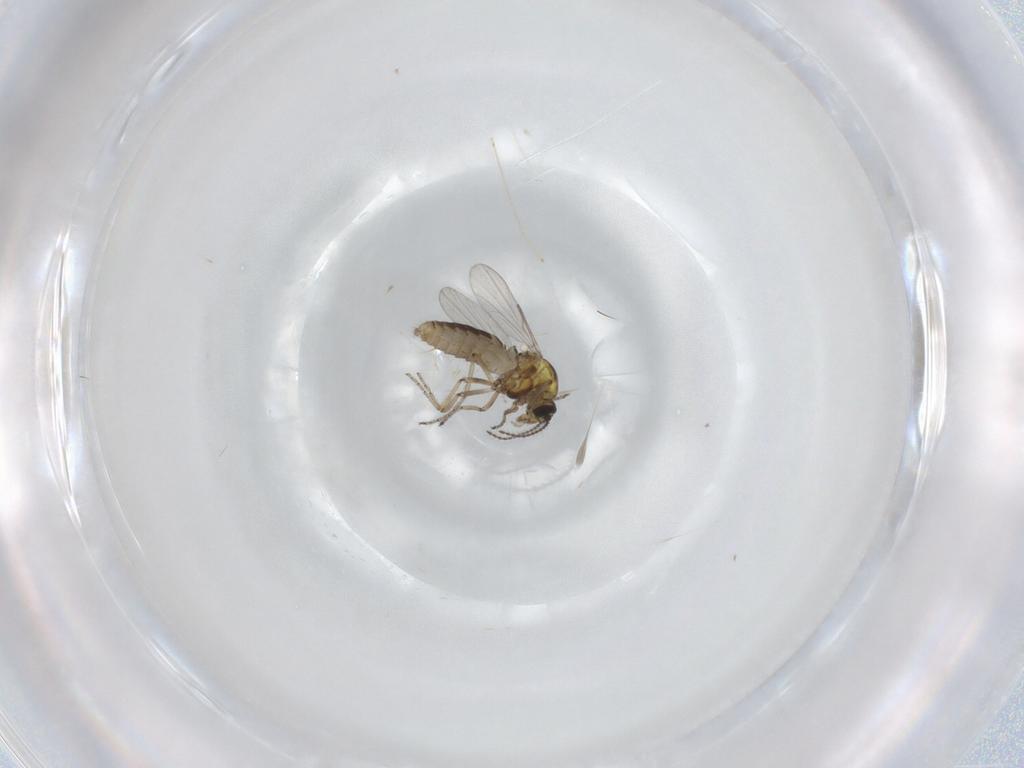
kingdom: Animalia
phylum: Arthropoda
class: Insecta
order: Diptera
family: Ceratopogonidae
